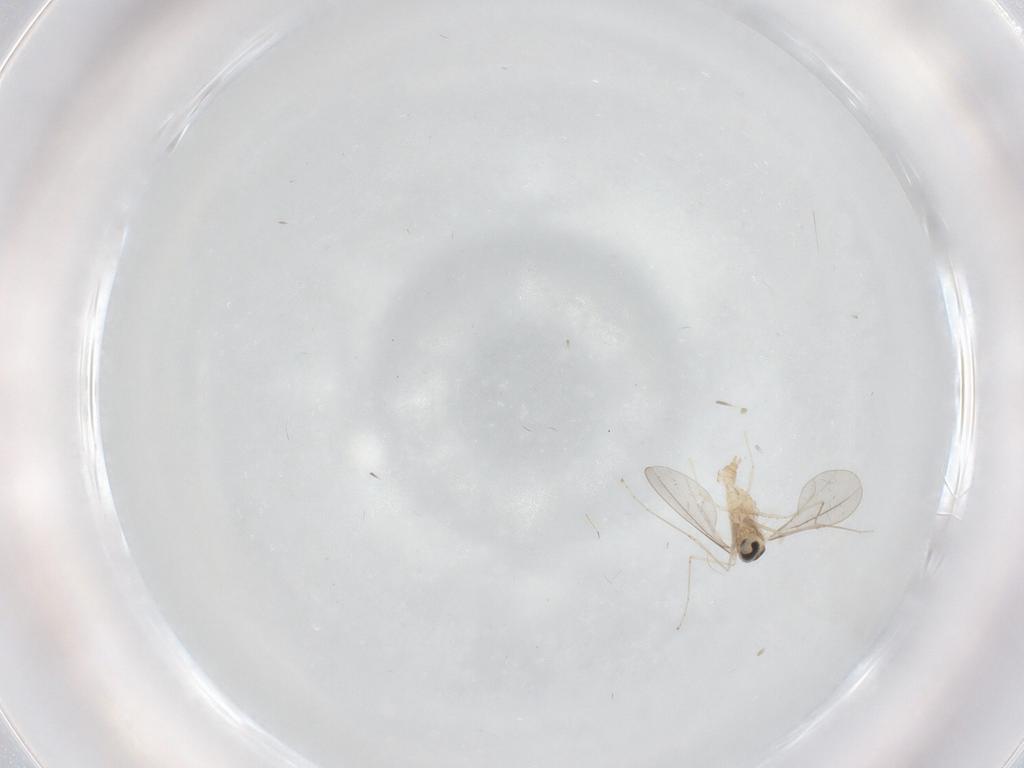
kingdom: Animalia
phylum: Arthropoda
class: Insecta
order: Diptera
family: Cecidomyiidae
